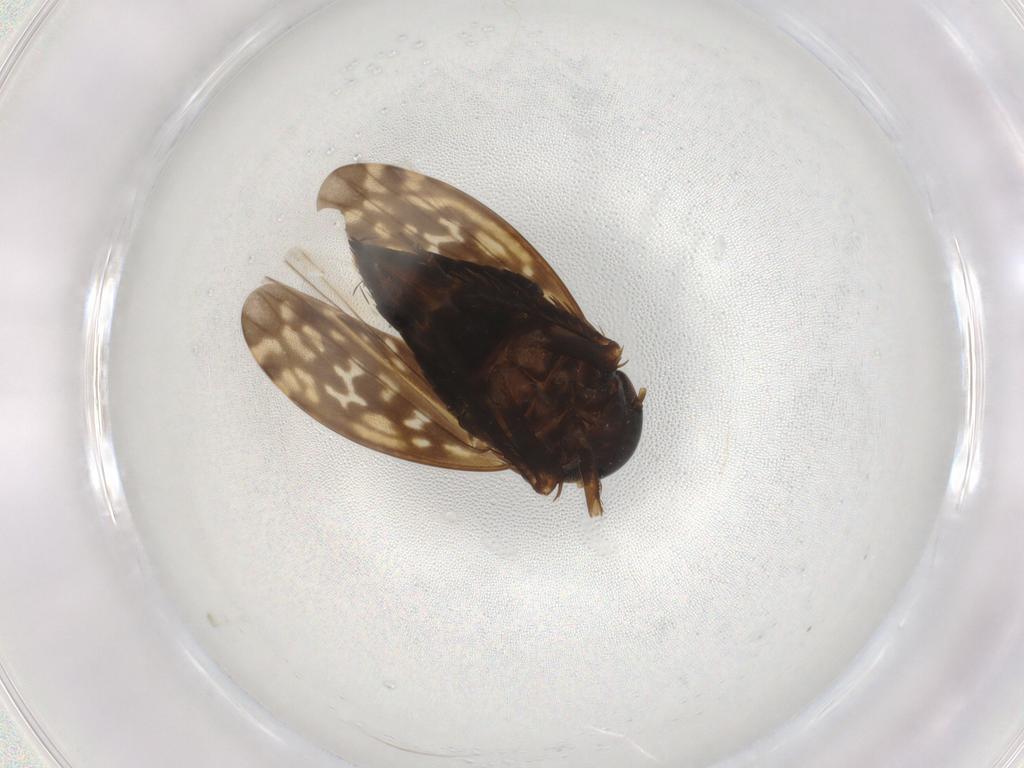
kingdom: Animalia
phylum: Arthropoda
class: Insecta
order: Hemiptera
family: Cicadellidae
